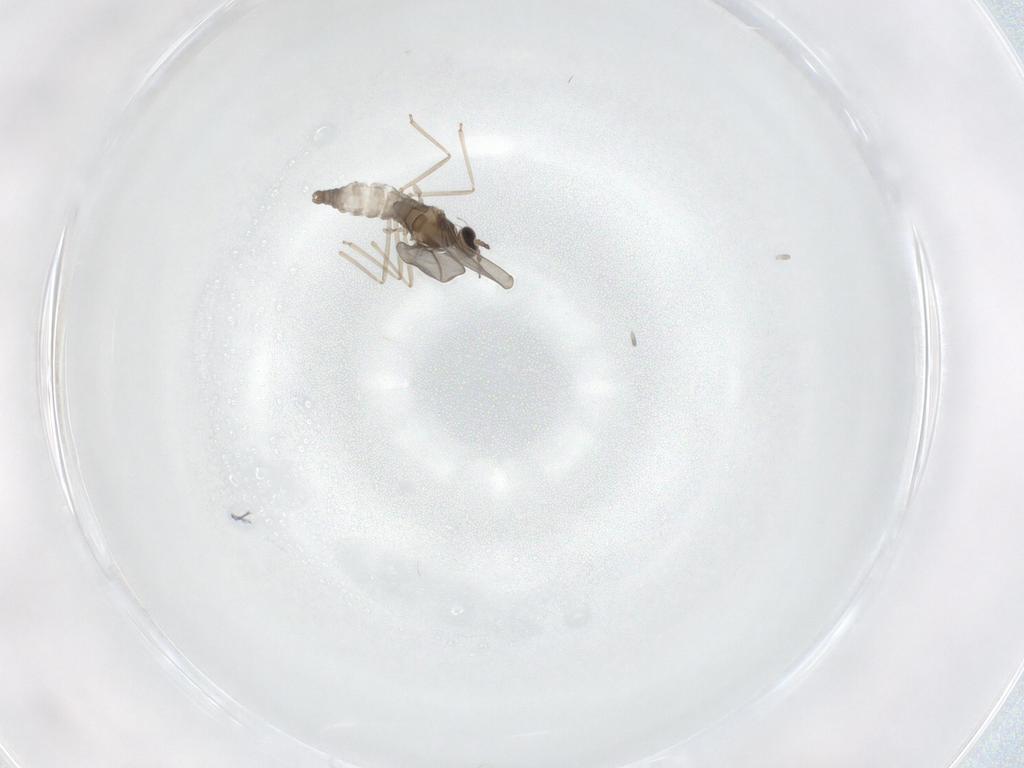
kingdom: Animalia
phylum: Arthropoda
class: Insecta
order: Diptera
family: Cecidomyiidae
